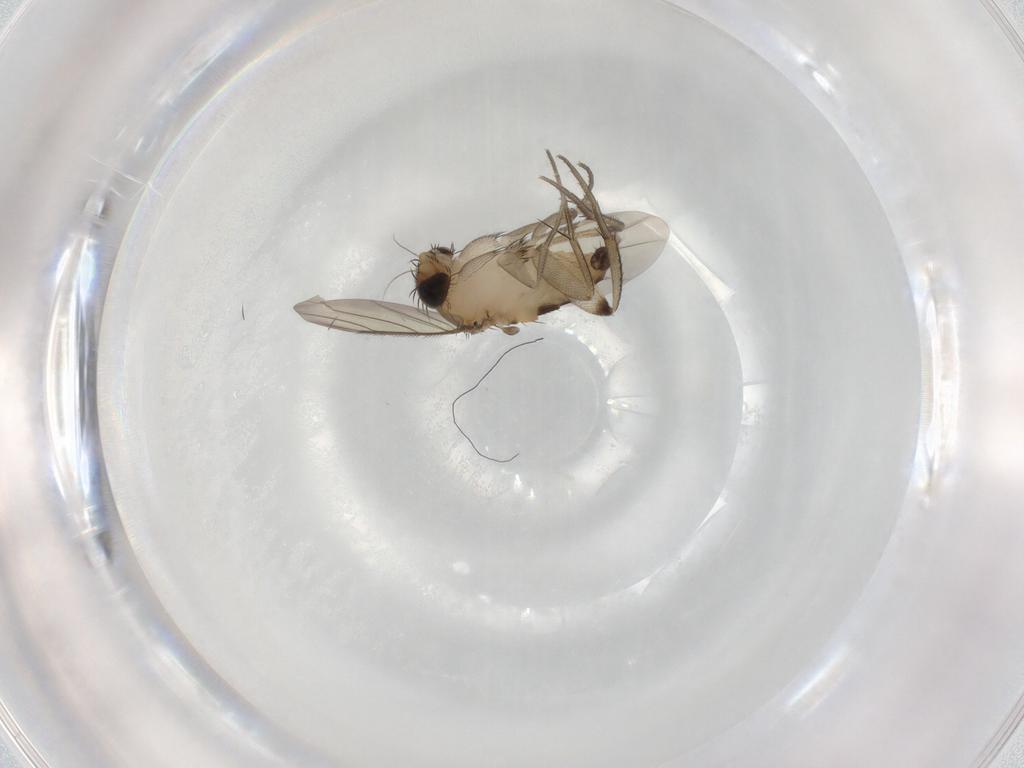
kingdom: Animalia
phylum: Arthropoda
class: Insecta
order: Diptera
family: Phoridae
